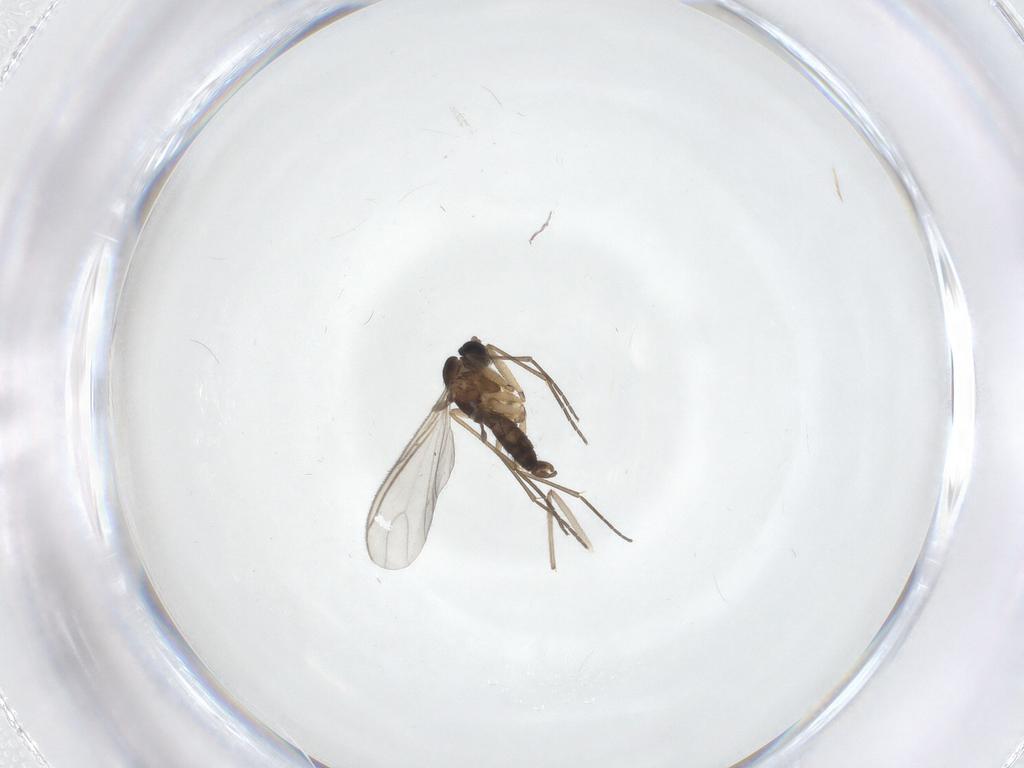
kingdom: Animalia
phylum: Arthropoda
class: Insecta
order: Diptera
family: Sciaridae
